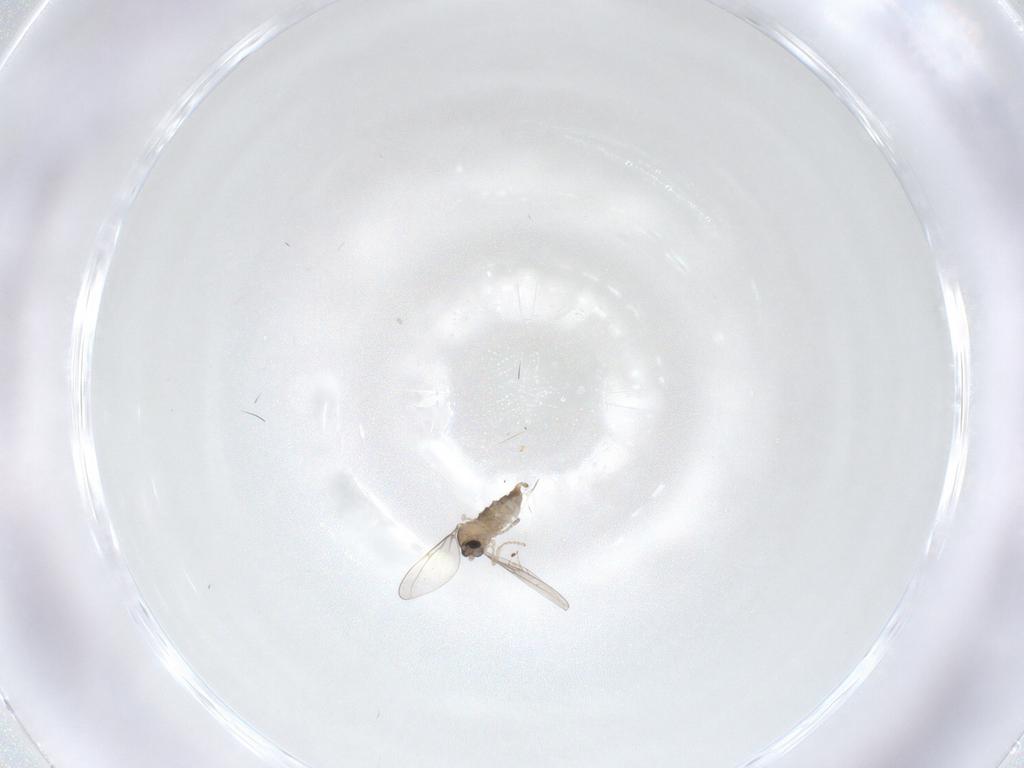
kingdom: Animalia
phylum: Arthropoda
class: Insecta
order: Diptera
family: Cecidomyiidae
